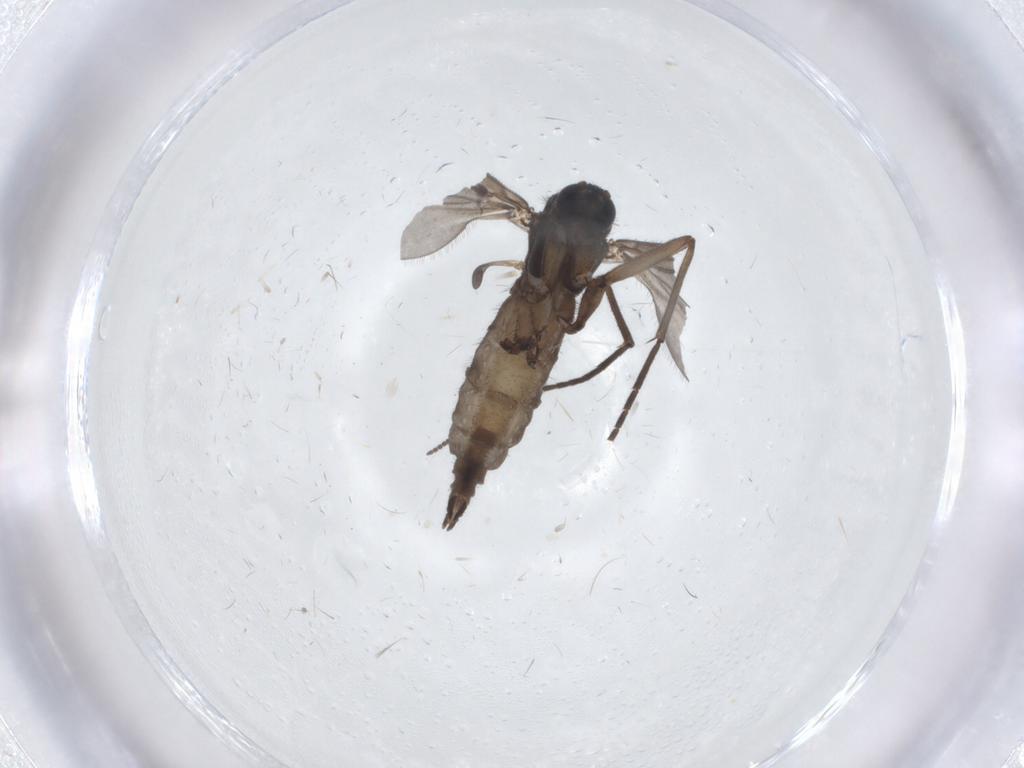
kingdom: Animalia
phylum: Arthropoda
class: Insecta
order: Diptera
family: Sciaridae
